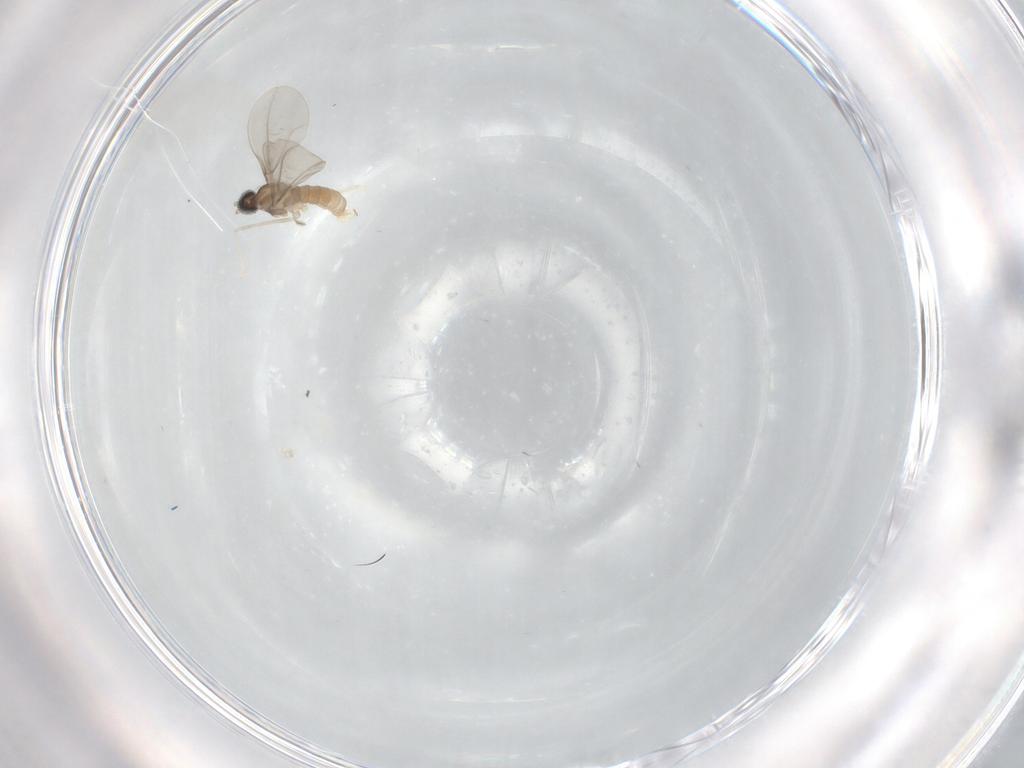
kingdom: Animalia
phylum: Arthropoda
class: Insecta
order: Diptera
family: Cecidomyiidae
